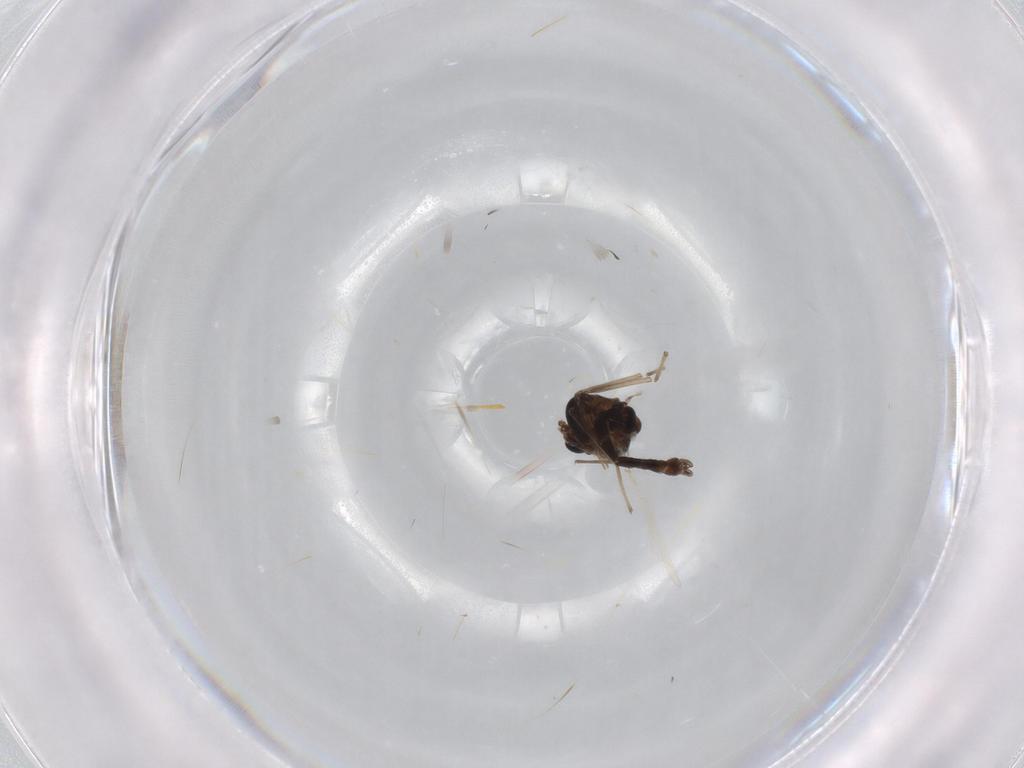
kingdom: Animalia
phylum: Arthropoda
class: Insecta
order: Diptera
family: Chironomidae
